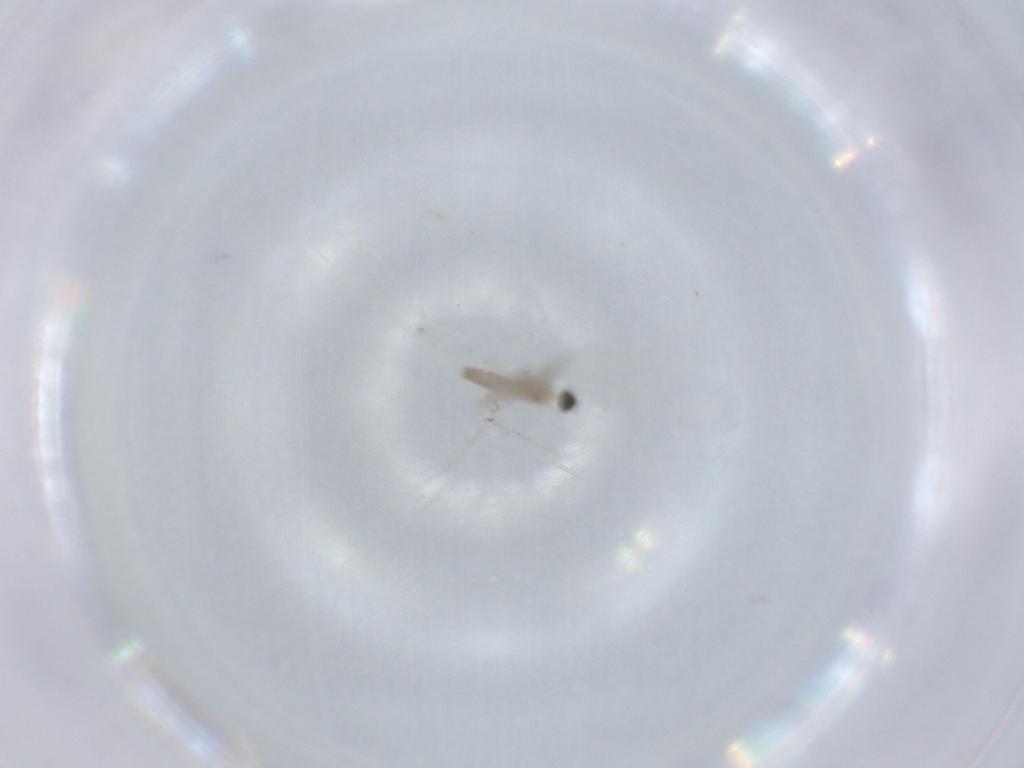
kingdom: Animalia
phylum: Arthropoda
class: Insecta
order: Diptera
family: Cecidomyiidae
